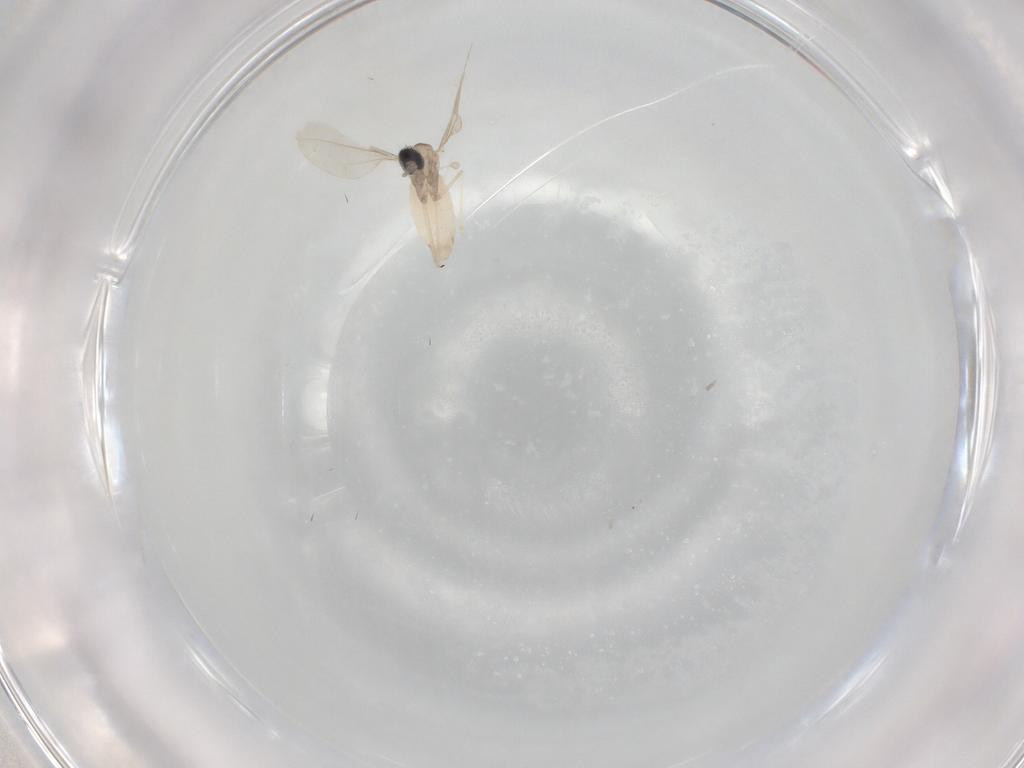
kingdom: Animalia
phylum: Arthropoda
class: Insecta
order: Diptera
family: Cecidomyiidae
